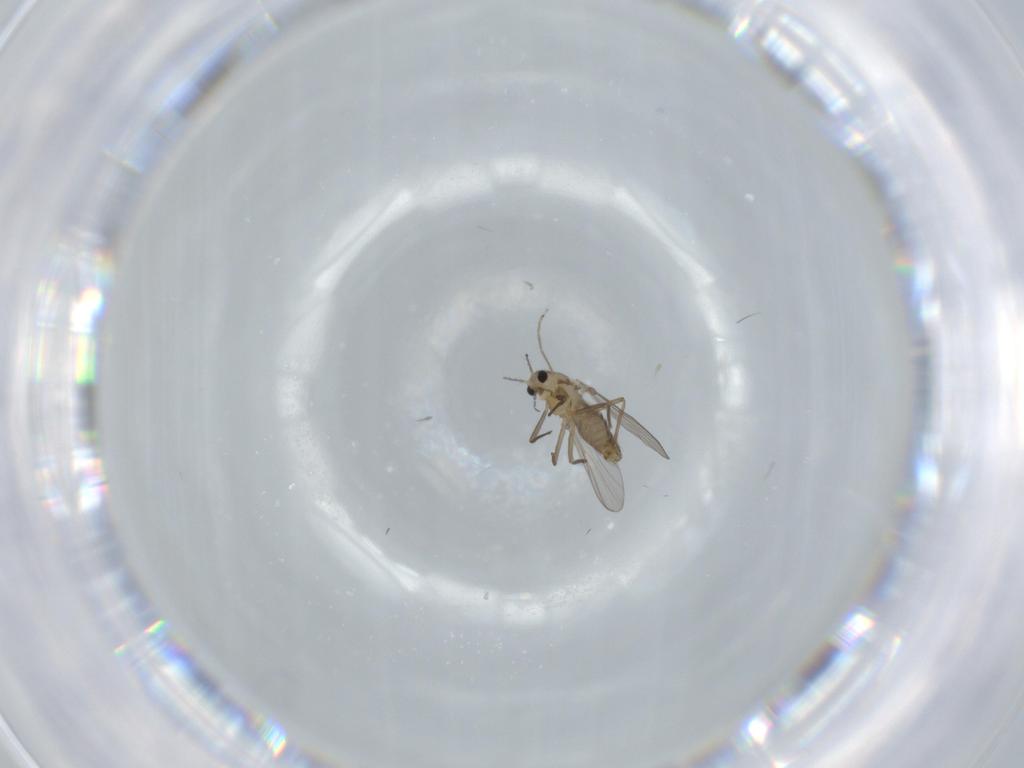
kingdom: Animalia
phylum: Arthropoda
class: Insecta
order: Diptera
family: Chironomidae
